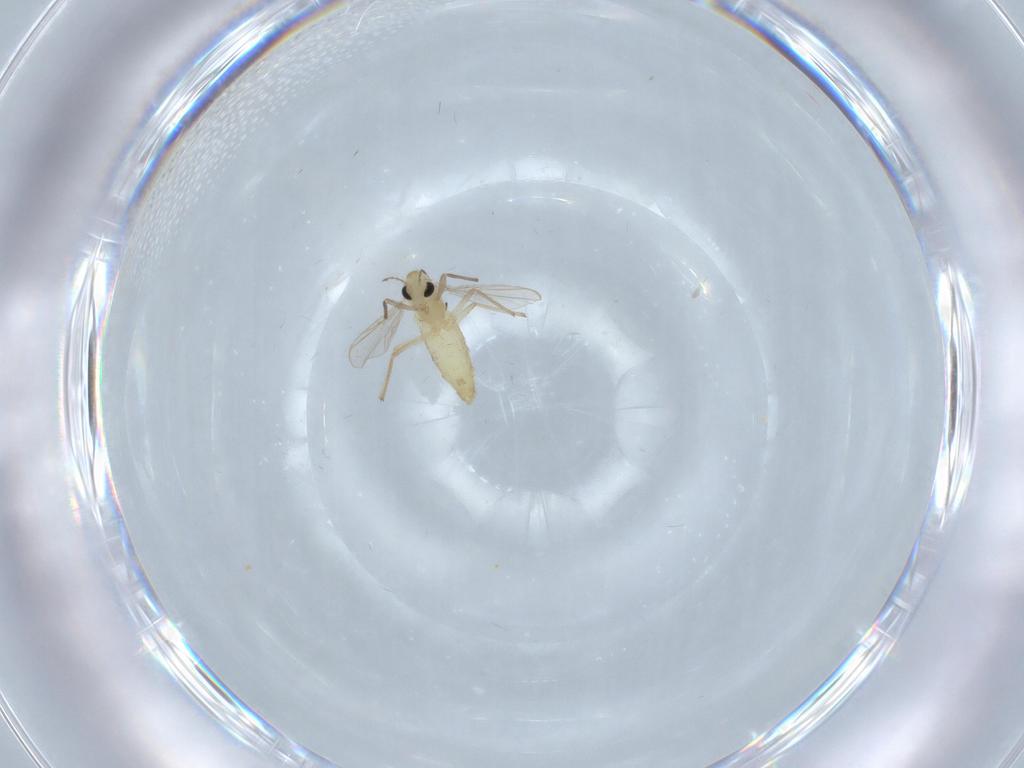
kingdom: Animalia
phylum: Arthropoda
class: Insecta
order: Diptera
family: Chironomidae
